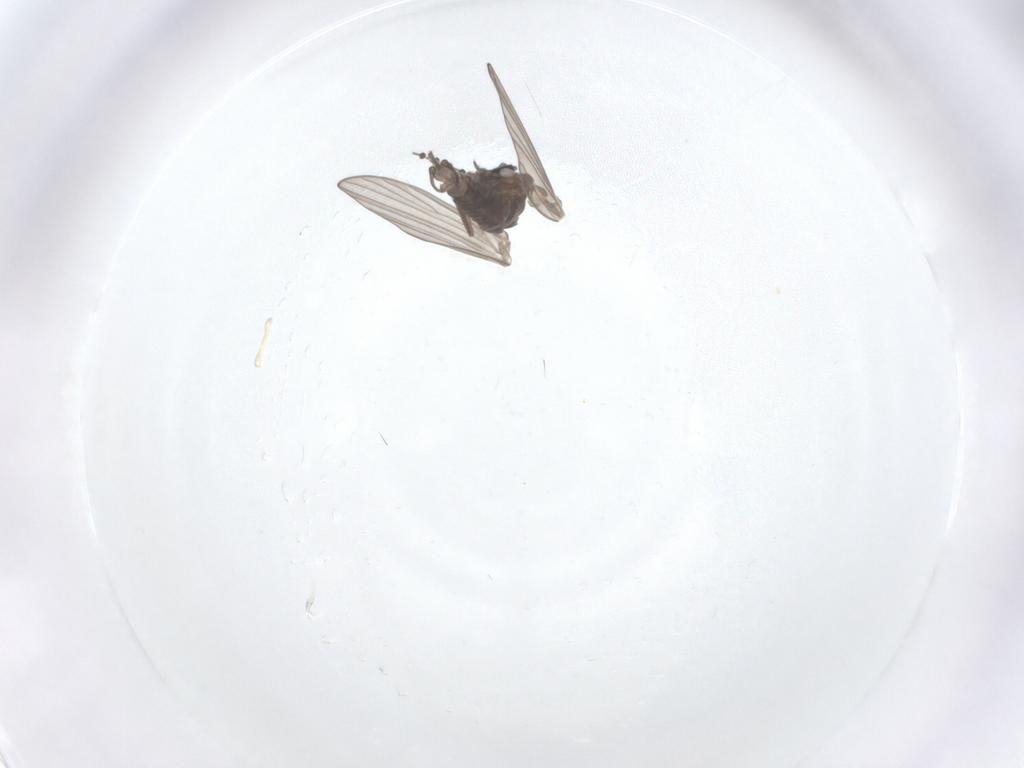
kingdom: Animalia
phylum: Arthropoda
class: Insecta
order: Diptera
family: Psychodidae
